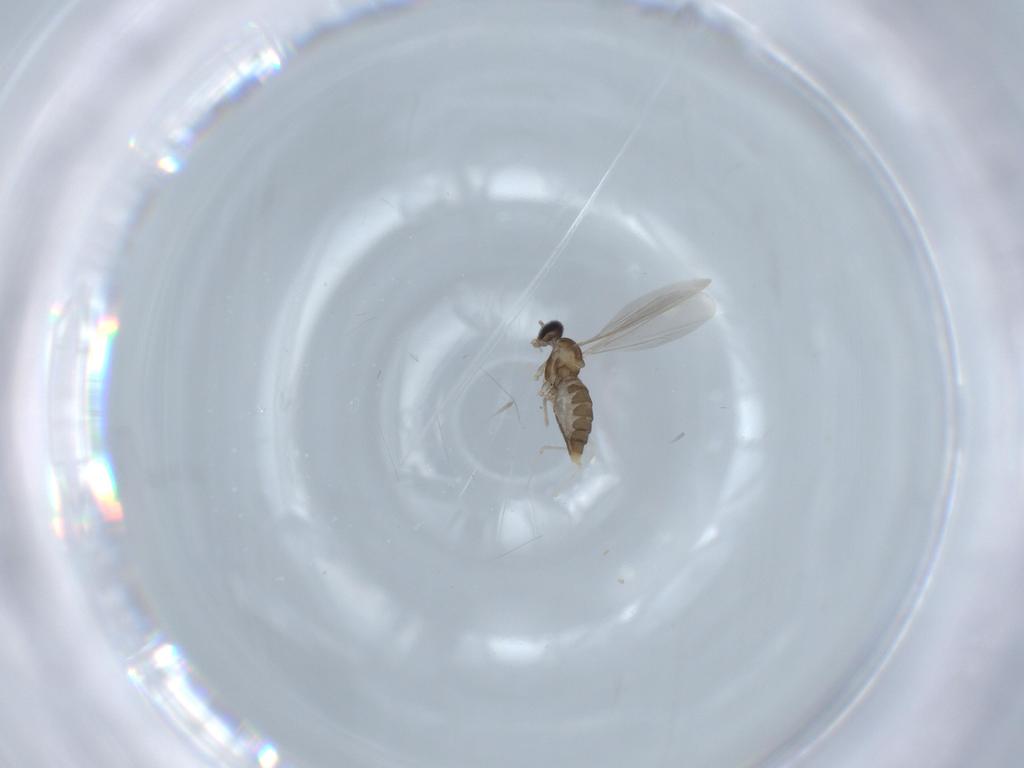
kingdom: Animalia
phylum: Arthropoda
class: Insecta
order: Diptera
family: Cecidomyiidae
